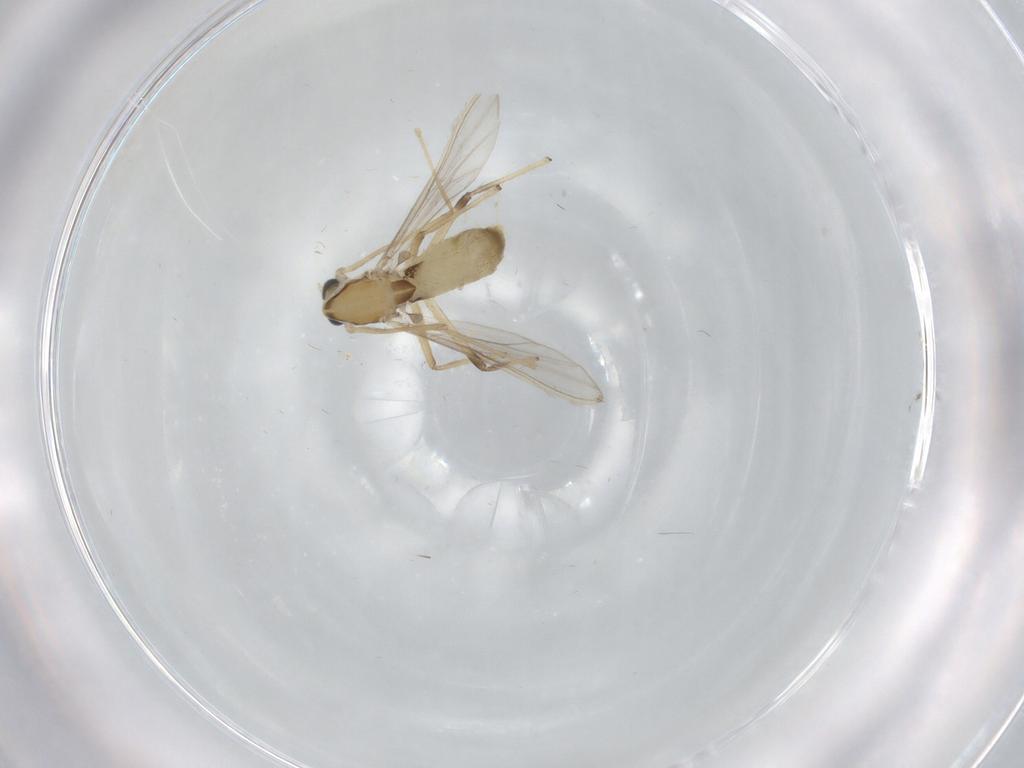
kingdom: Animalia
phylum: Arthropoda
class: Insecta
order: Diptera
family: Chironomidae
